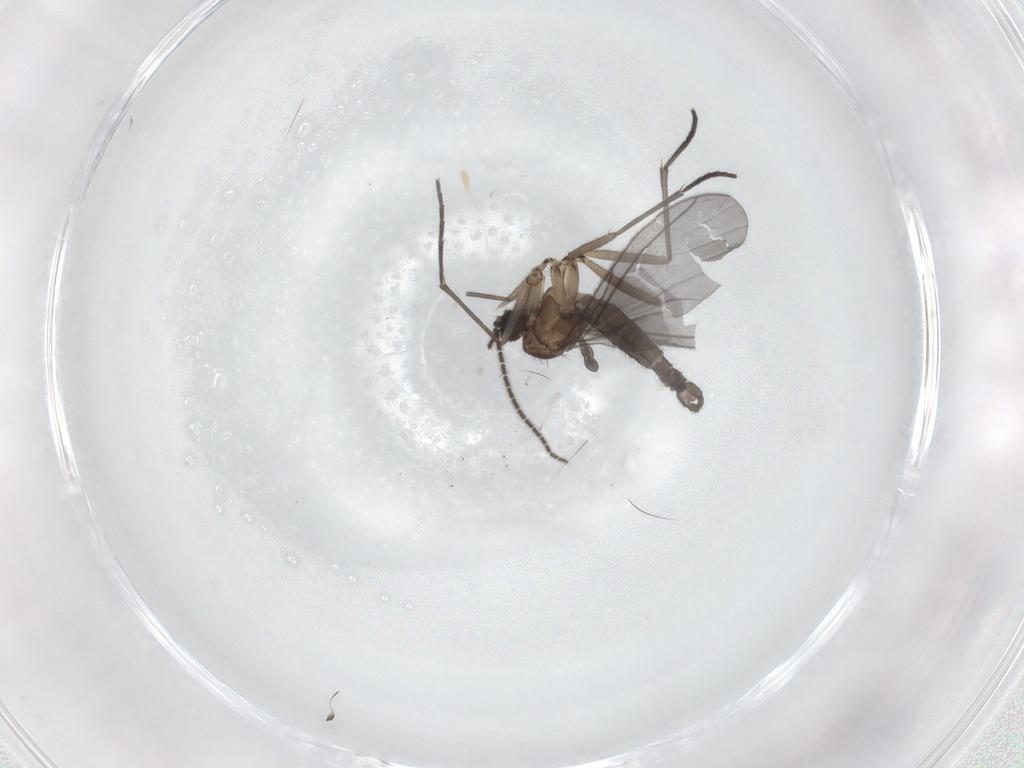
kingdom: Animalia
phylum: Arthropoda
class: Insecta
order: Diptera
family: Sciaridae
